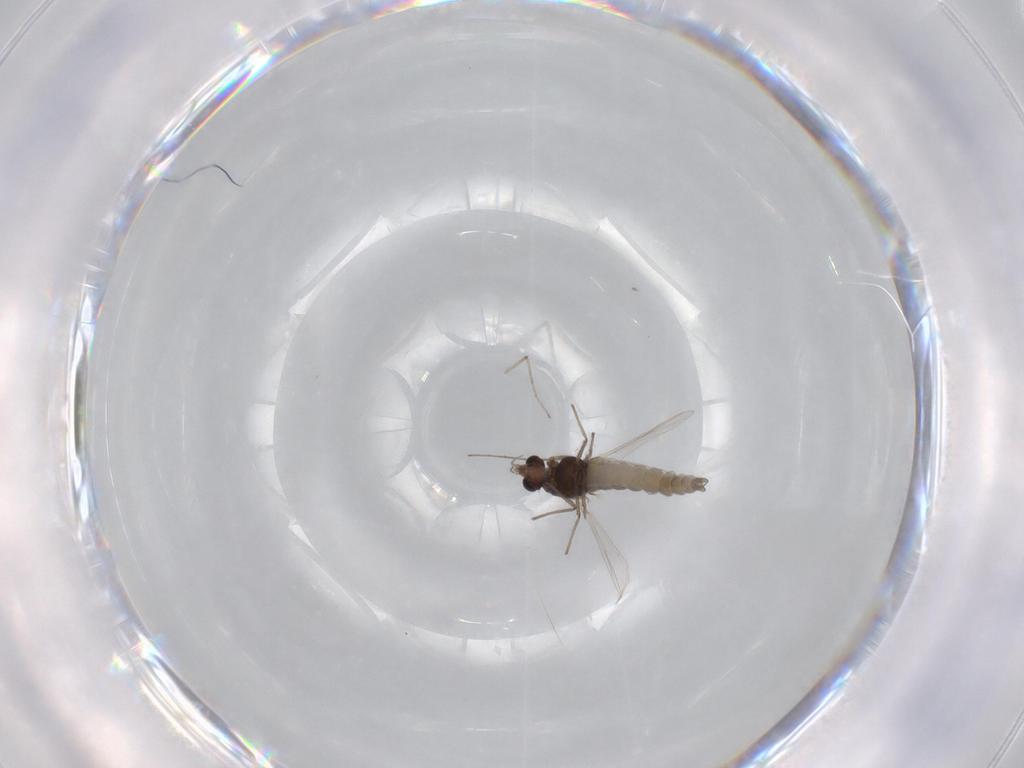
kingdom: Animalia
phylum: Arthropoda
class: Insecta
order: Diptera
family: Chironomidae
